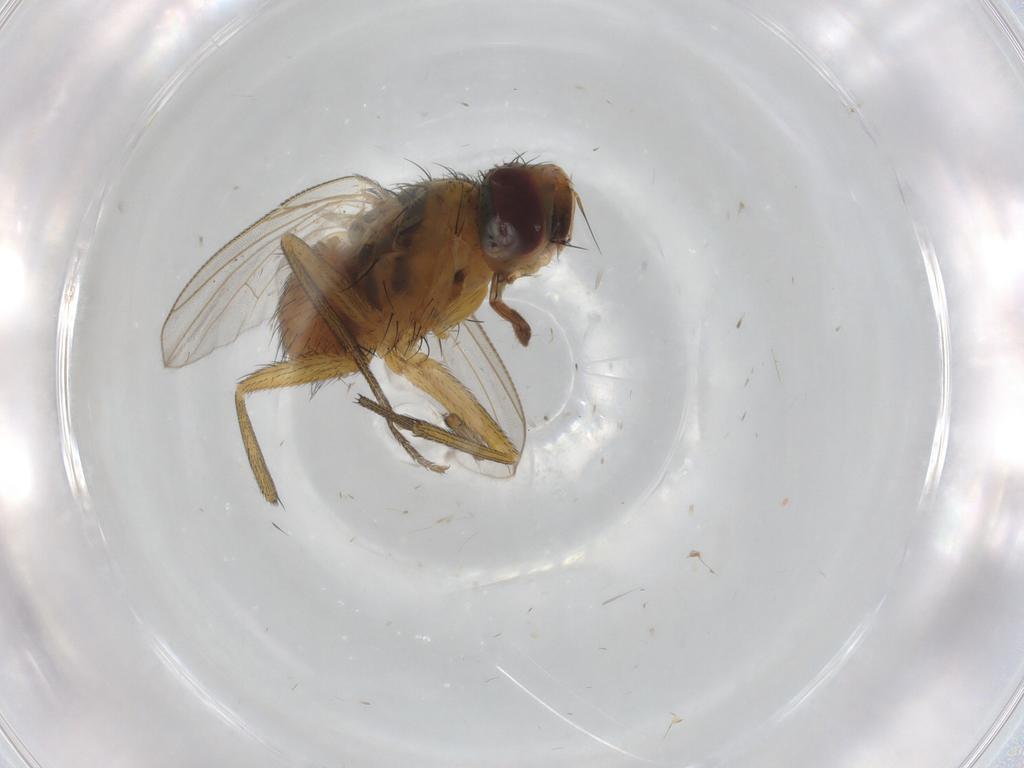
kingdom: Animalia
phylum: Arthropoda
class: Insecta
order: Diptera
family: Muscidae
